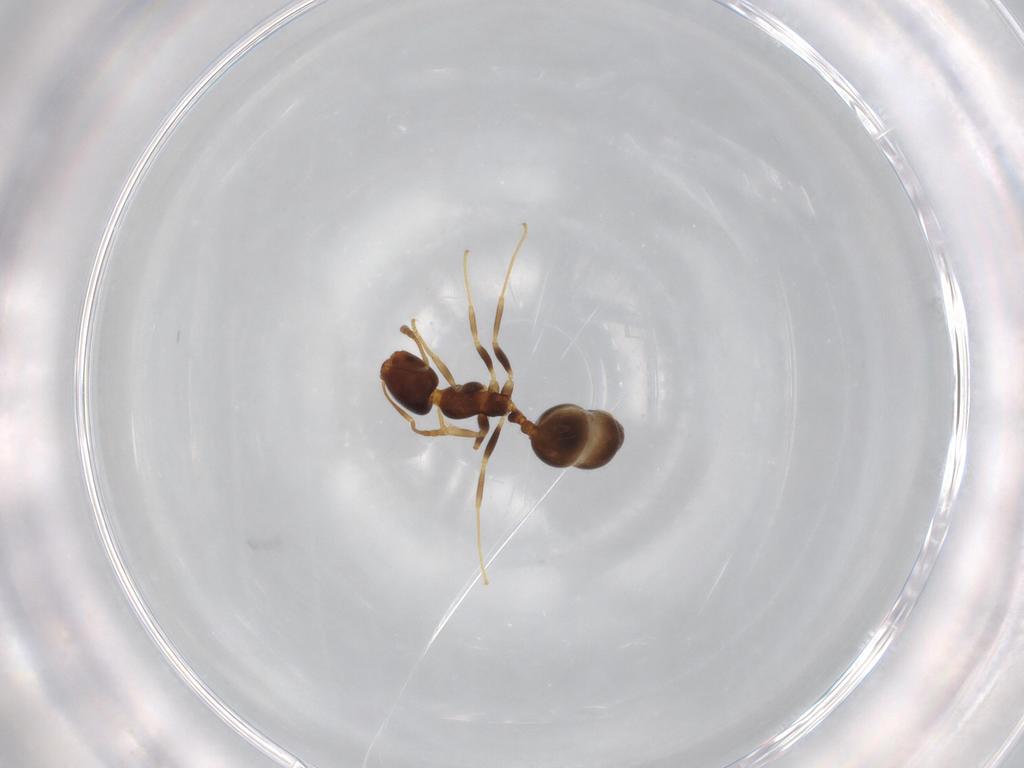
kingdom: Animalia
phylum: Arthropoda
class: Insecta
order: Hymenoptera
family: Formicidae
